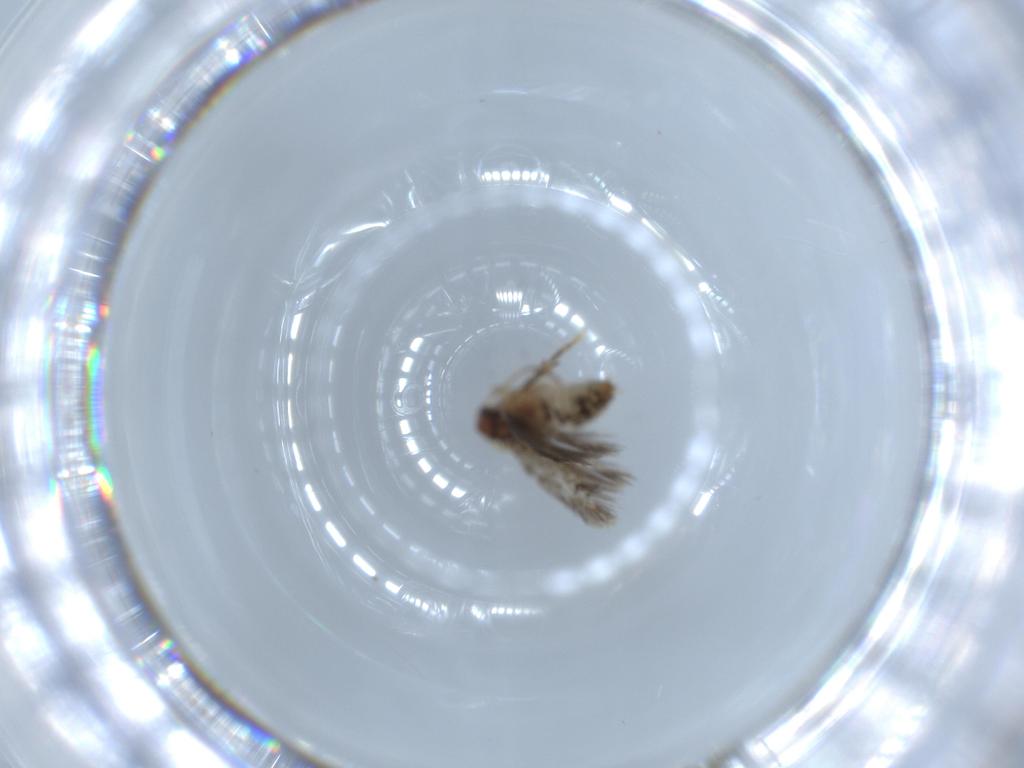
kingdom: Animalia
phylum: Arthropoda
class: Insecta
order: Lepidoptera
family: Nepticulidae
